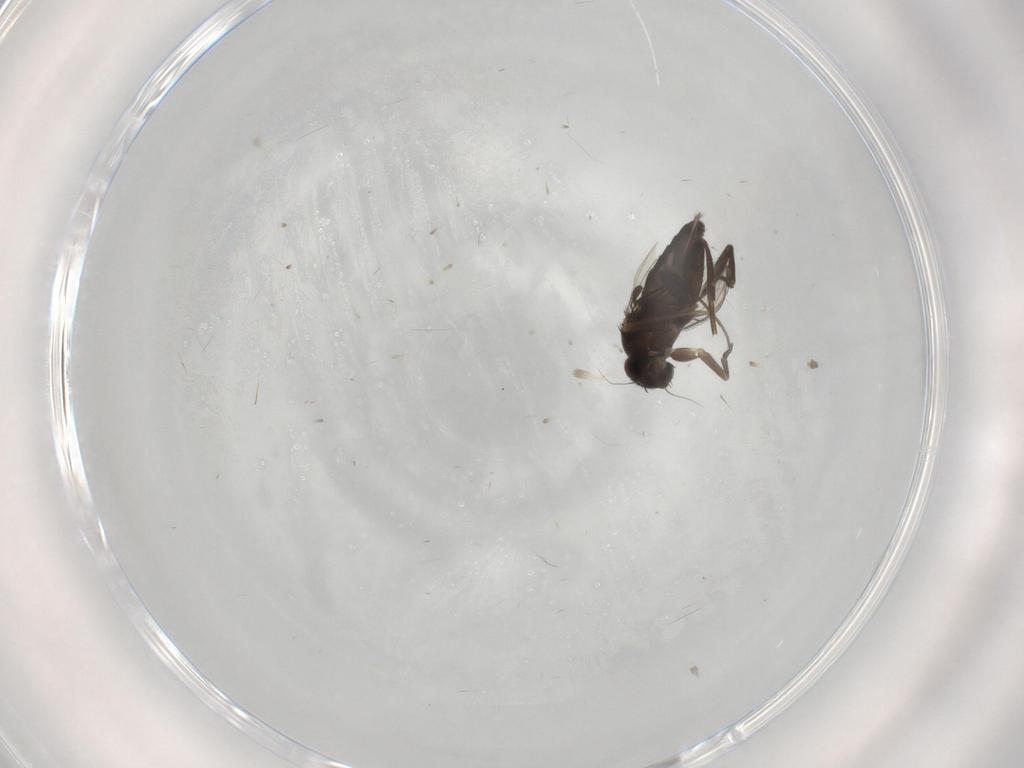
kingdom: Animalia
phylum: Arthropoda
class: Insecta
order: Diptera
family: Phoridae
